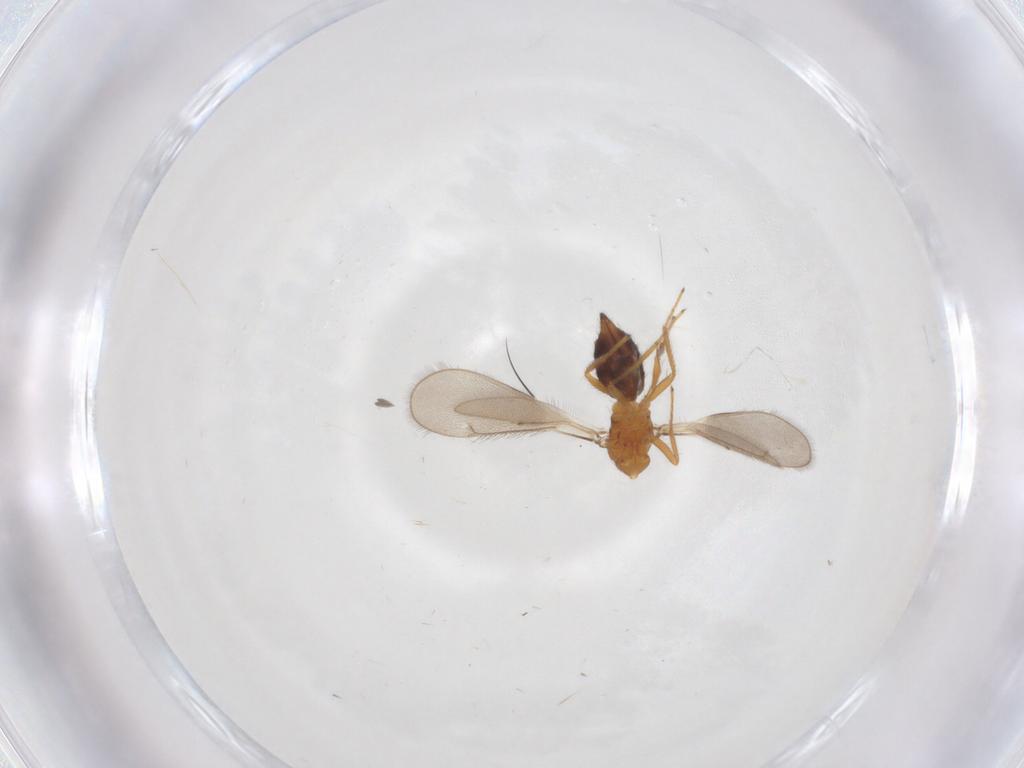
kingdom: Animalia
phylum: Arthropoda
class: Insecta
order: Hymenoptera
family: Eulophidae
